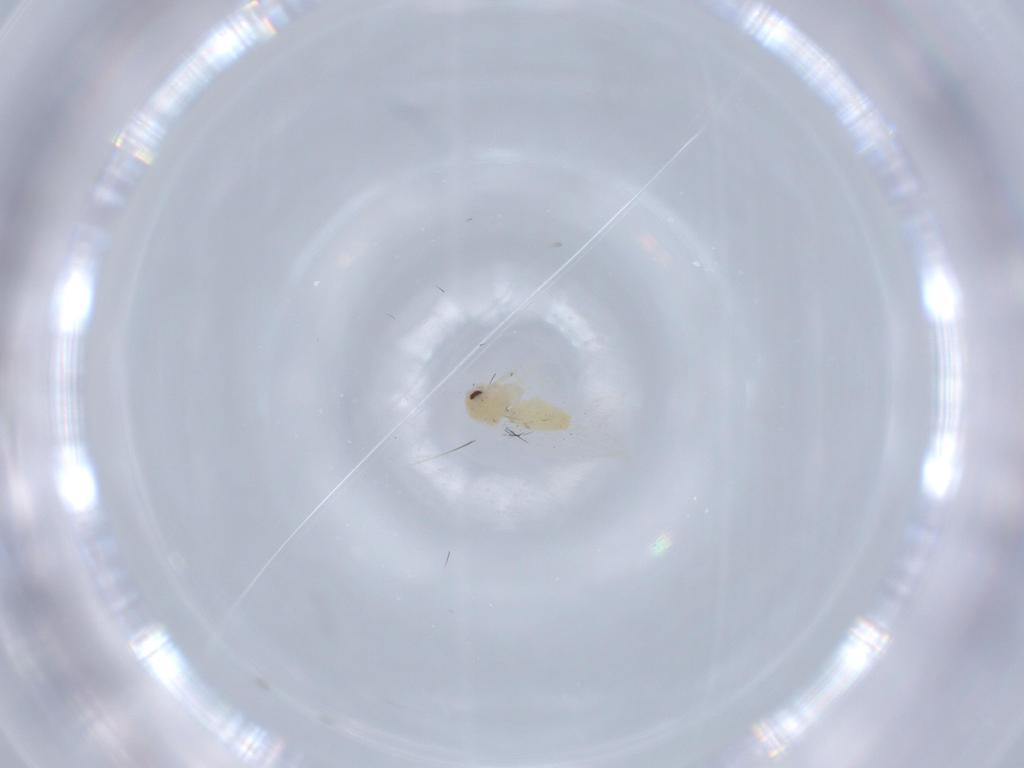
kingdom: Animalia
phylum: Arthropoda
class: Insecta
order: Hemiptera
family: Aleyrodidae
